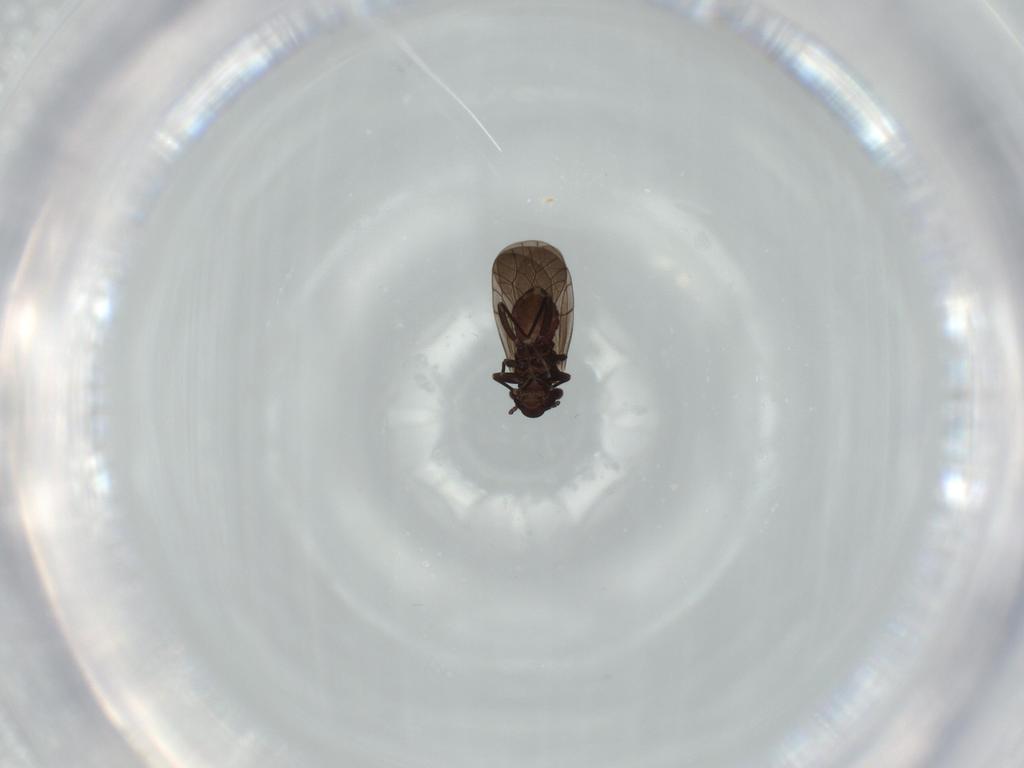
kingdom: Animalia
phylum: Arthropoda
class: Insecta
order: Psocodea
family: Lepidopsocidae
